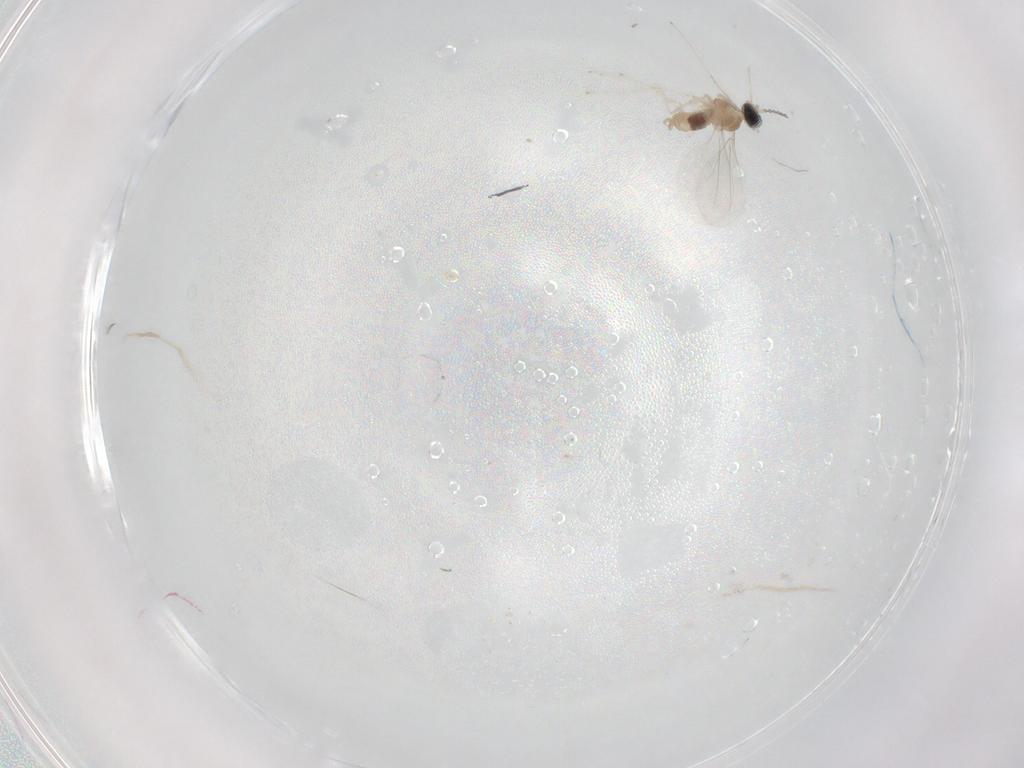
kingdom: Animalia
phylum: Arthropoda
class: Insecta
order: Diptera
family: Cecidomyiidae
